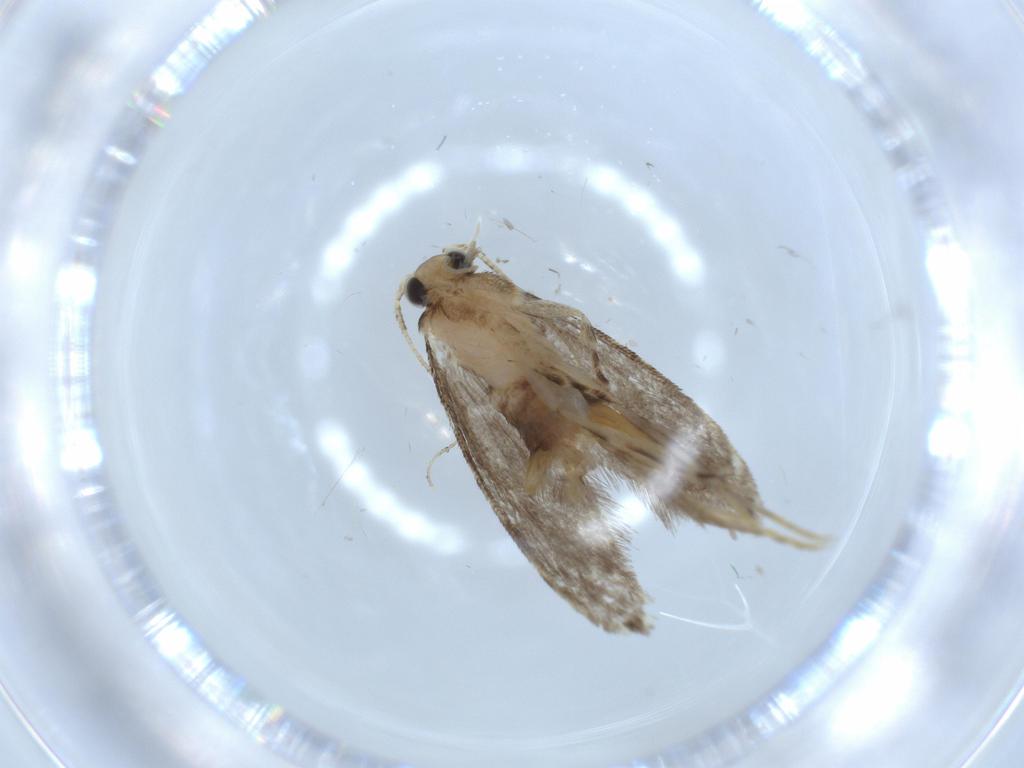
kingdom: Animalia
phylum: Arthropoda
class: Insecta
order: Lepidoptera
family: Tineidae
